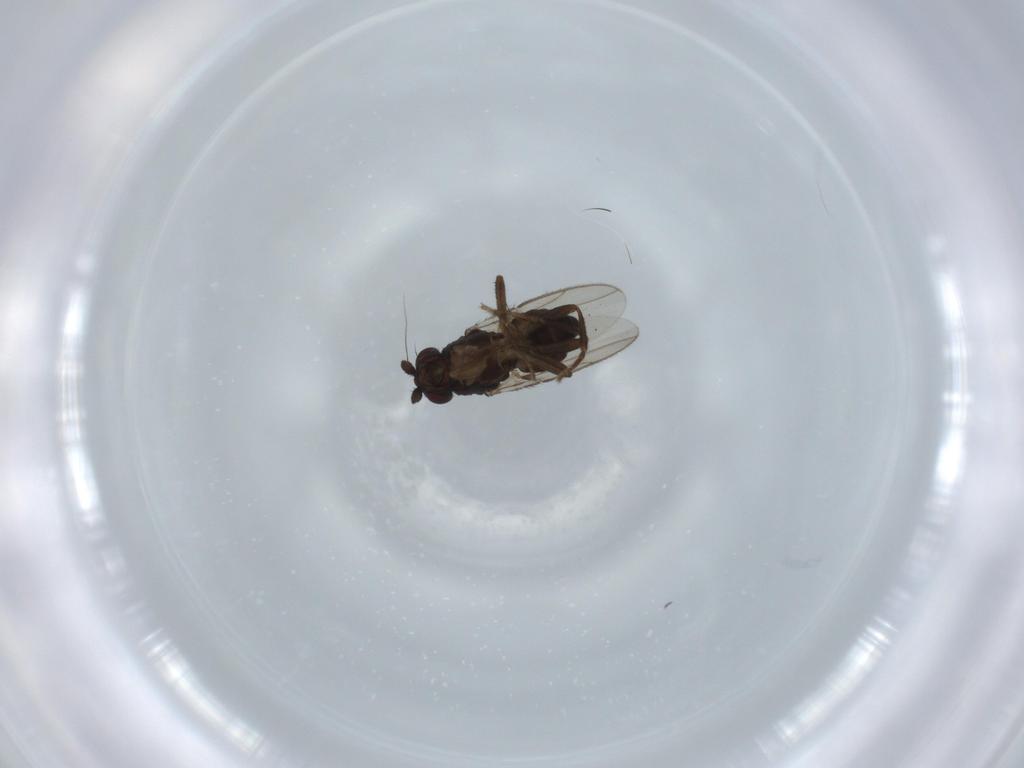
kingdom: Animalia
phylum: Arthropoda
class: Insecta
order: Diptera
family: Sphaeroceridae
